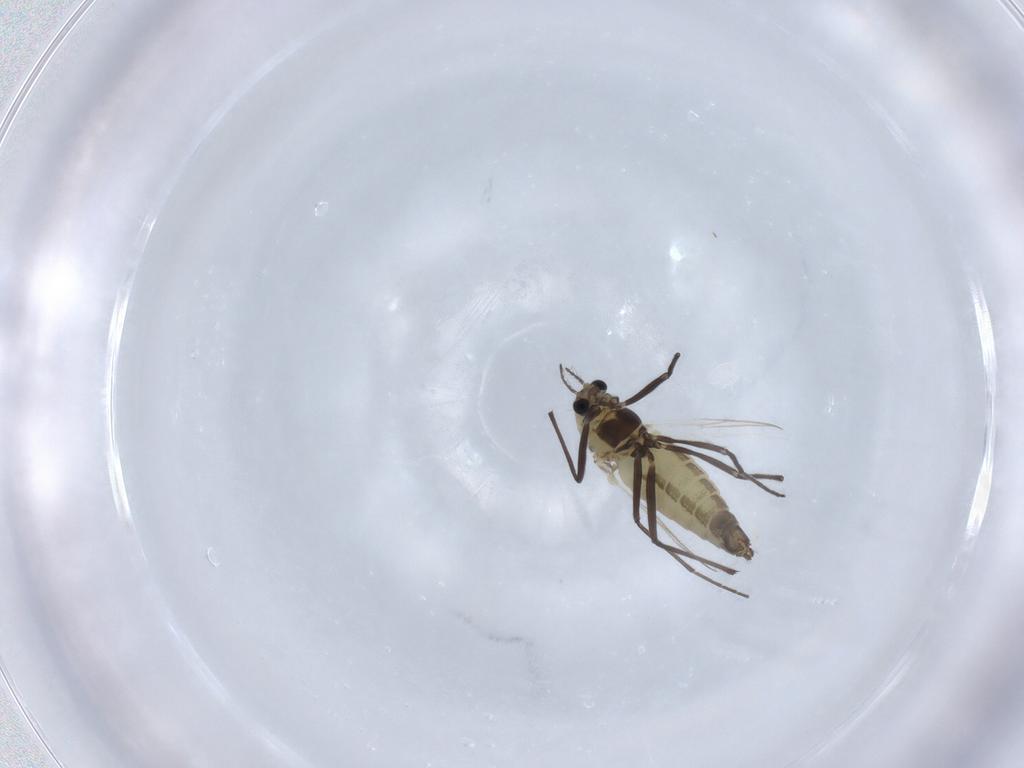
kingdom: Animalia
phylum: Arthropoda
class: Insecta
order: Diptera
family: Chironomidae
